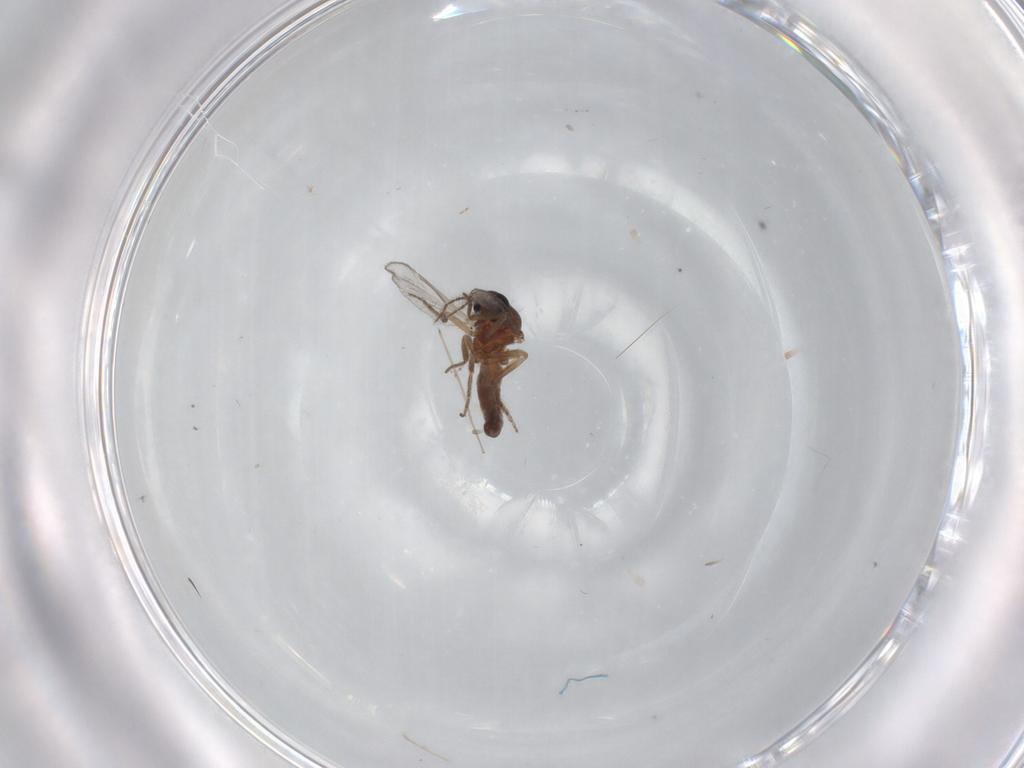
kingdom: Animalia
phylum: Arthropoda
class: Insecta
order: Diptera
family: Ceratopogonidae
